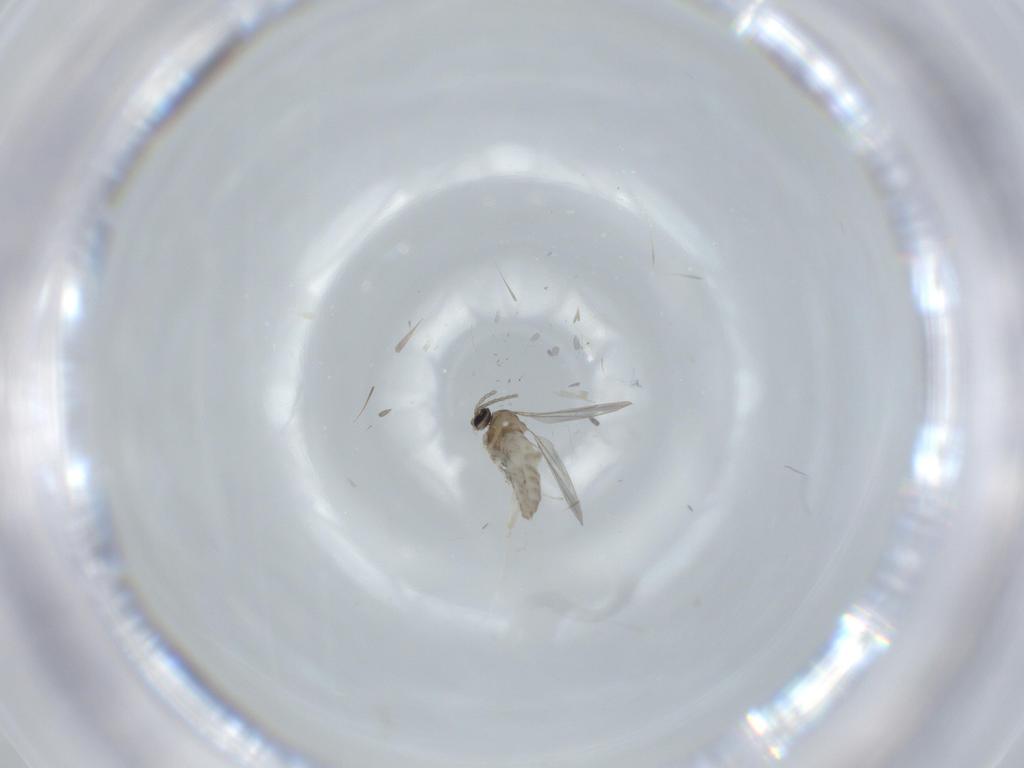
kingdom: Animalia
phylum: Arthropoda
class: Insecta
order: Diptera
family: Cecidomyiidae
